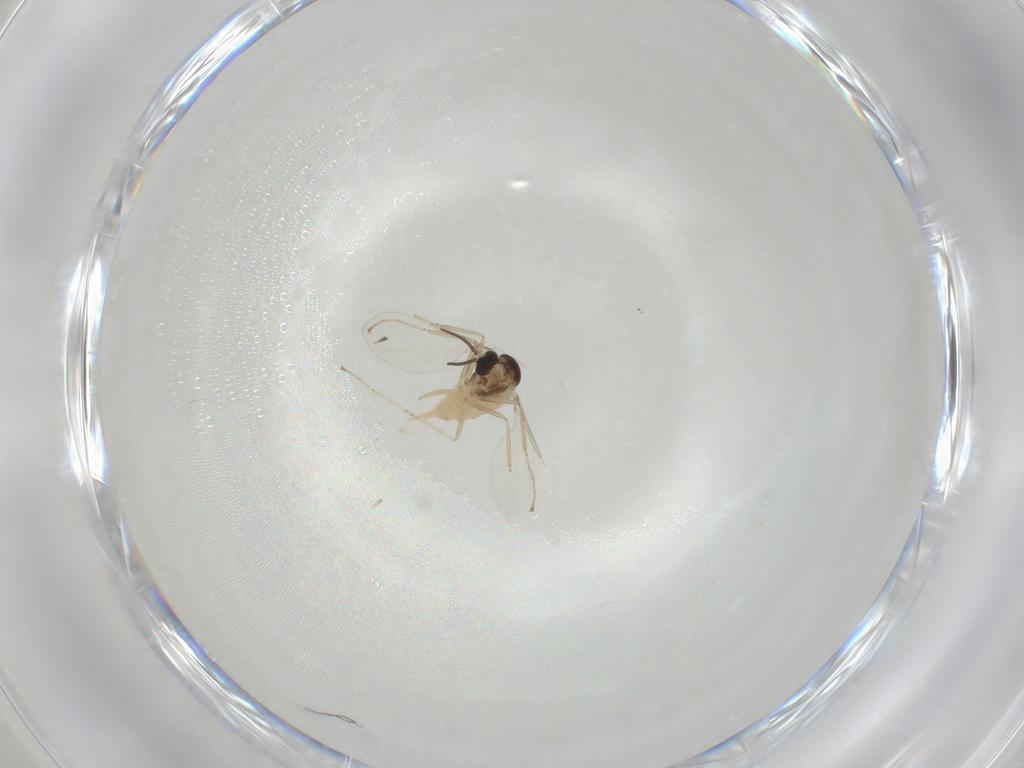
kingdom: Animalia
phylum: Arthropoda
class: Insecta
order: Diptera
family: Cecidomyiidae
